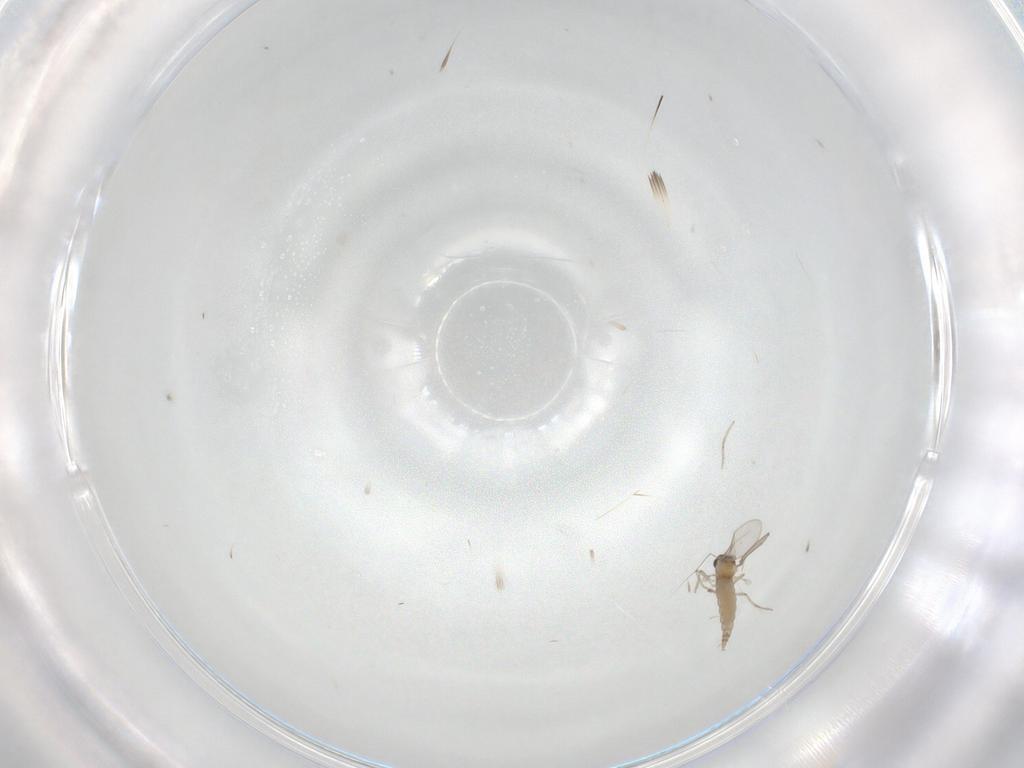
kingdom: Animalia
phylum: Arthropoda
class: Insecta
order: Diptera
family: Cecidomyiidae
